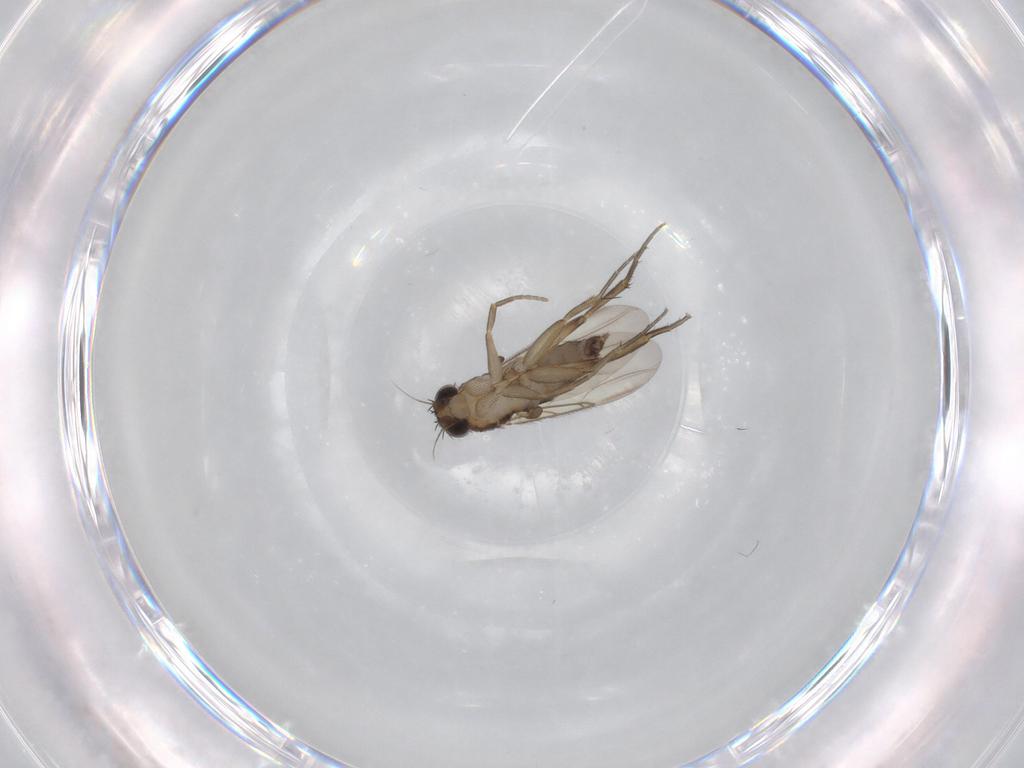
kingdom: Animalia
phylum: Arthropoda
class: Insecta
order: Diptera
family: Phoridae
